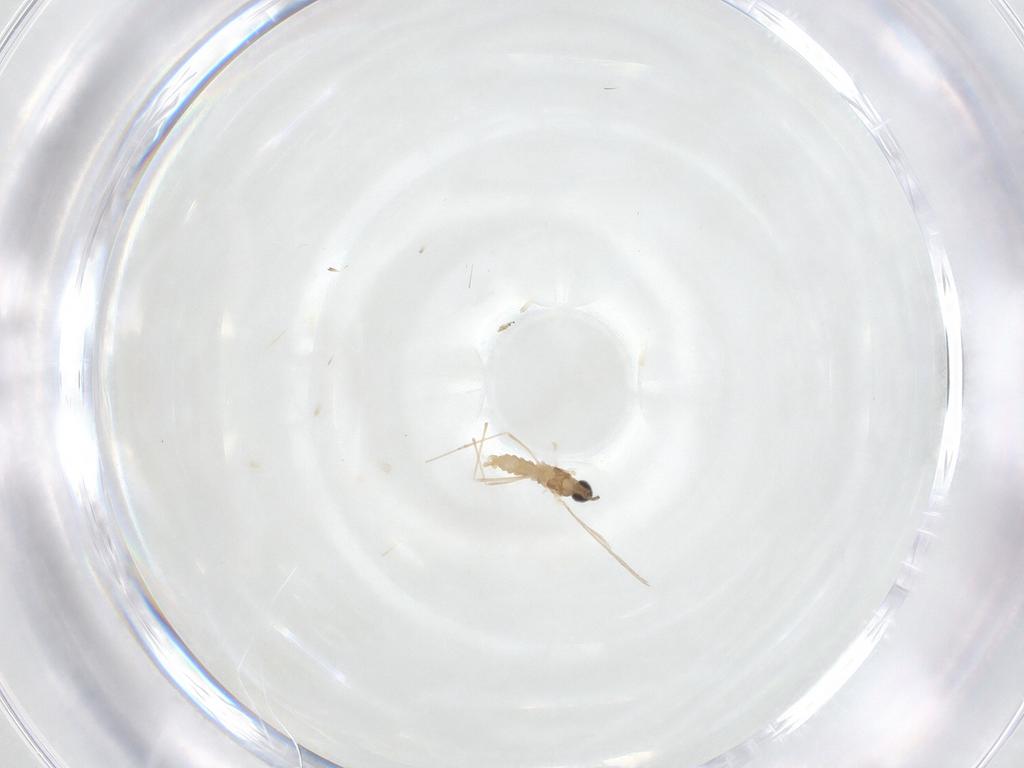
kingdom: Animalia
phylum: Arthropoda
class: Insecta
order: Diptera
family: Cecidomyiidae
